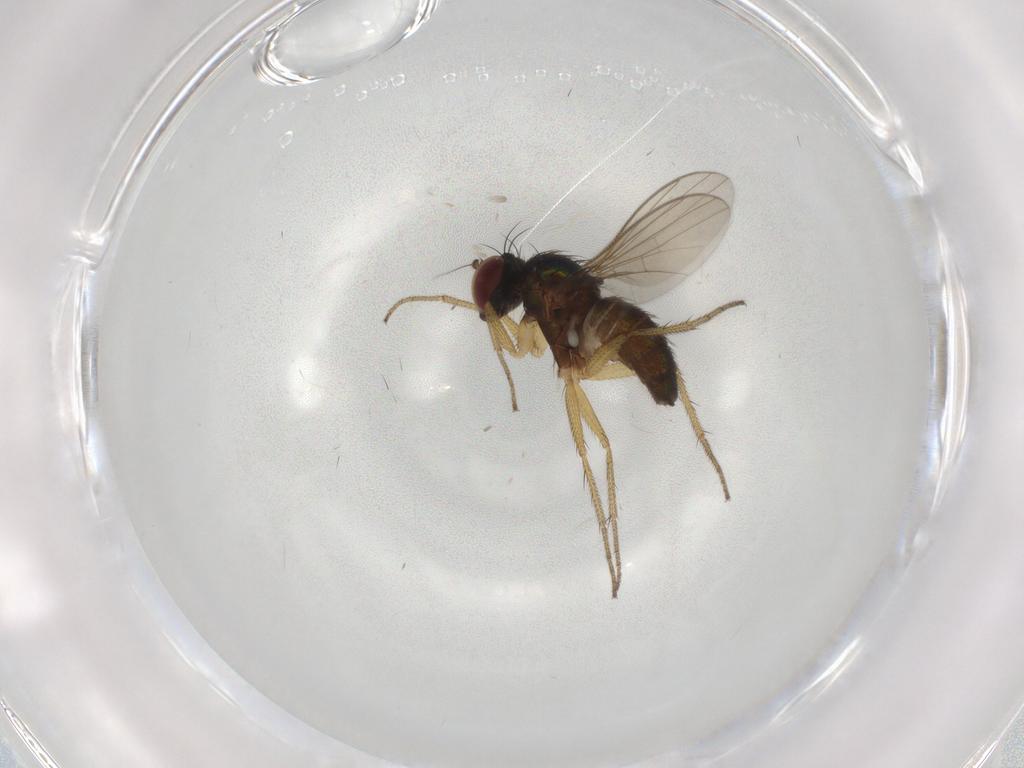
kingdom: Animalia
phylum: Arthropoda
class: Insecta
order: Diptera
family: Dolichopodidae
